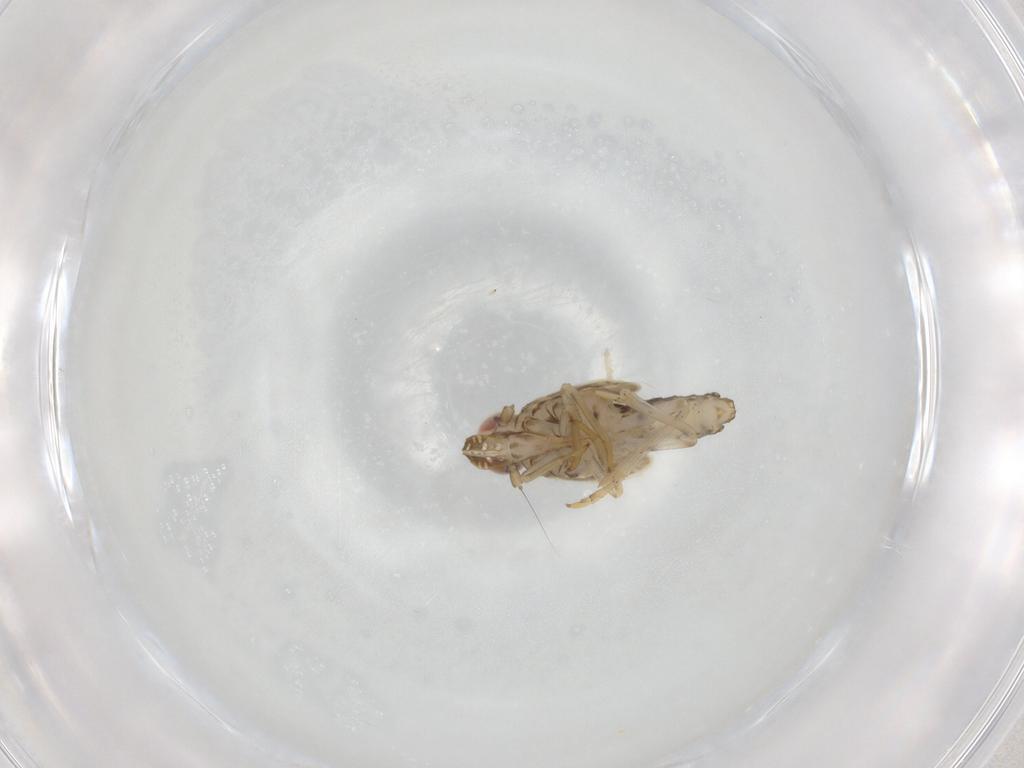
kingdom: Animalia
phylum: Arthropoda
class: Insecta
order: Hemiptera
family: Delphacidae
